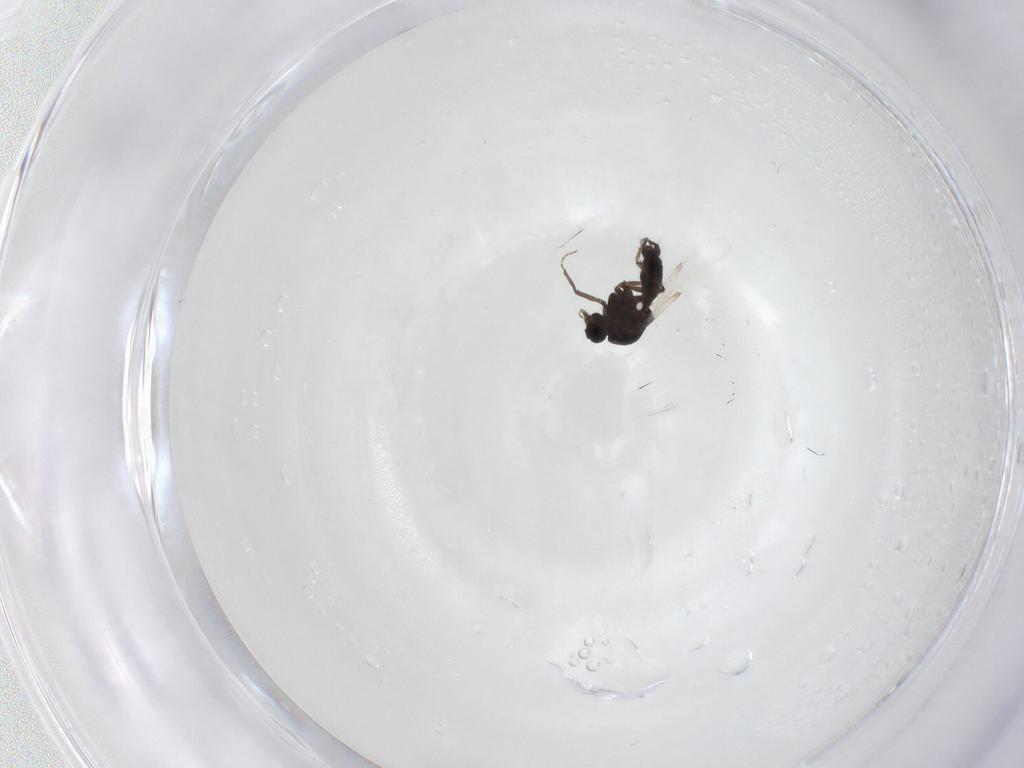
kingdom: Animalia
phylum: Arthropoda
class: Insecta
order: Diptera
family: Ceratopogonidae
